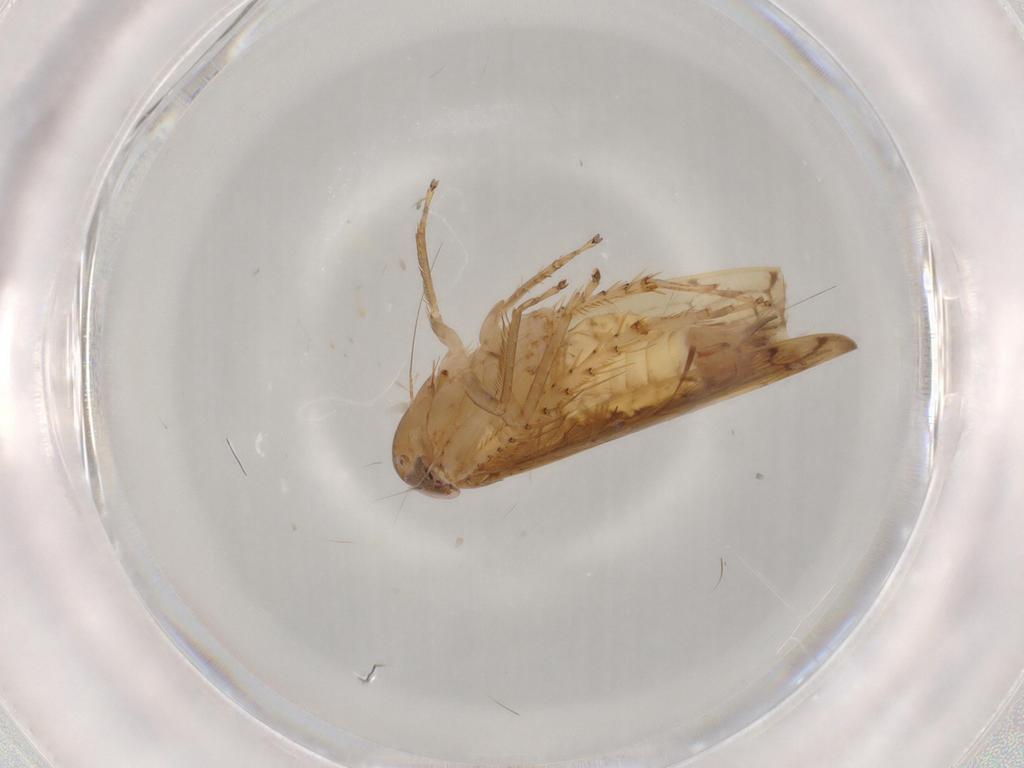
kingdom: Animalia
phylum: Arthropoda
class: Insecta
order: Hemiptera
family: Cicadellidae
